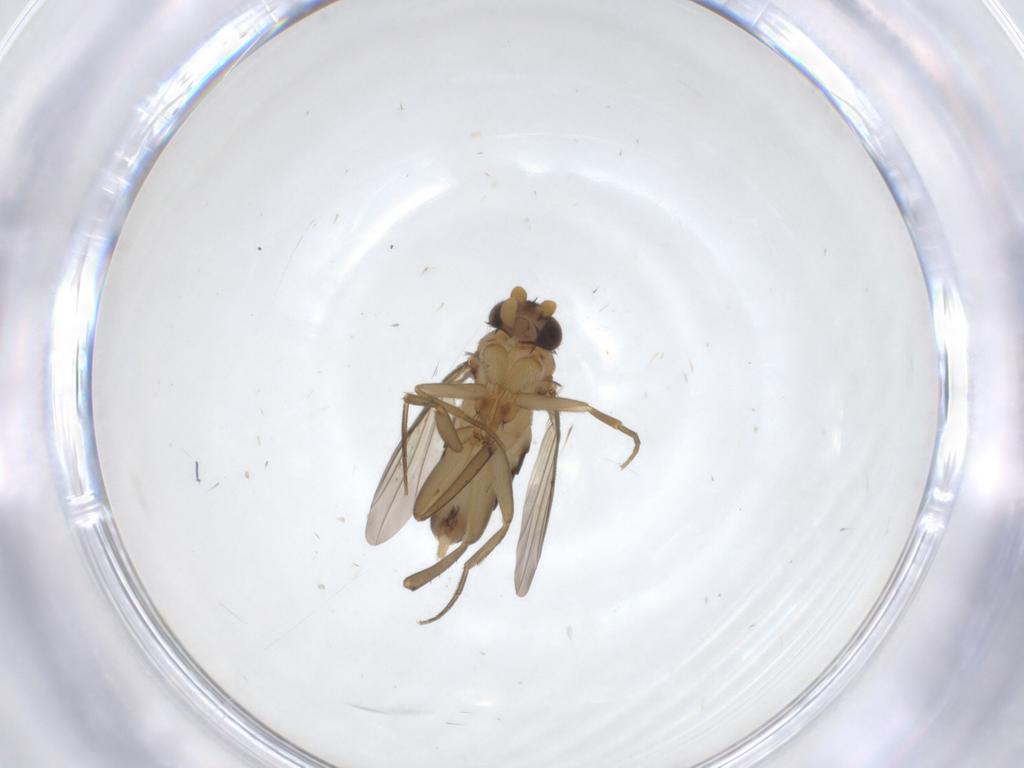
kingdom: Animalia
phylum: Arthropoda
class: Insecta
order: Diptera
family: Phoridae
